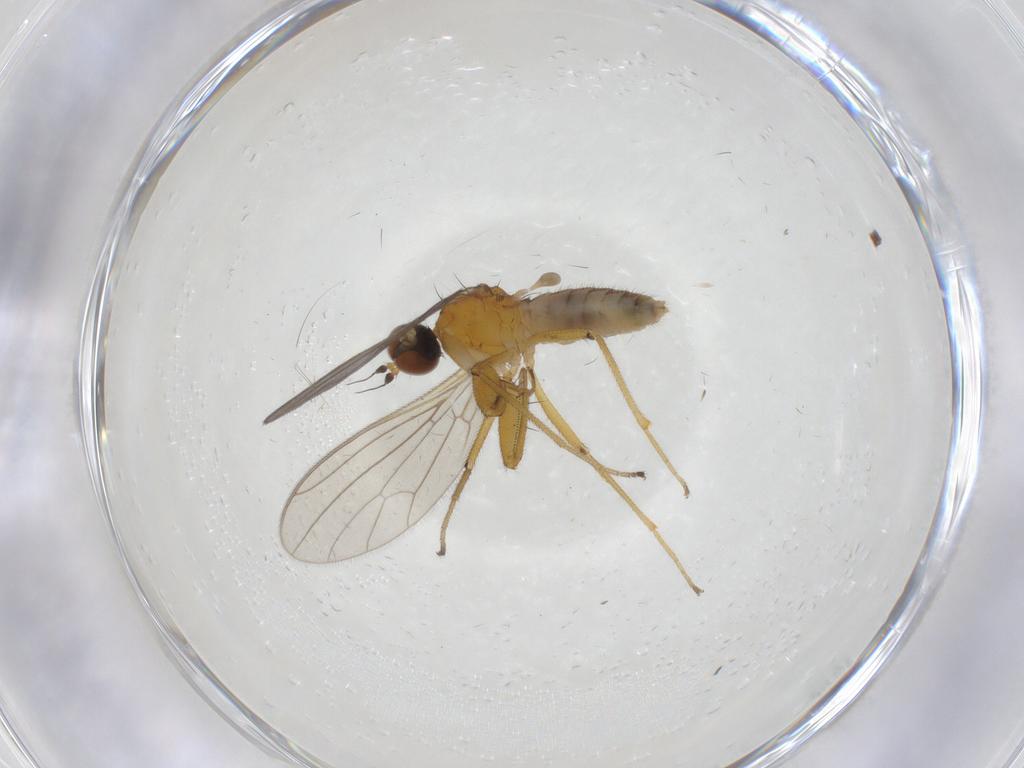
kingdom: Animalia
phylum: Arthropoda
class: Insecta
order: Diptera
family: Empididae
